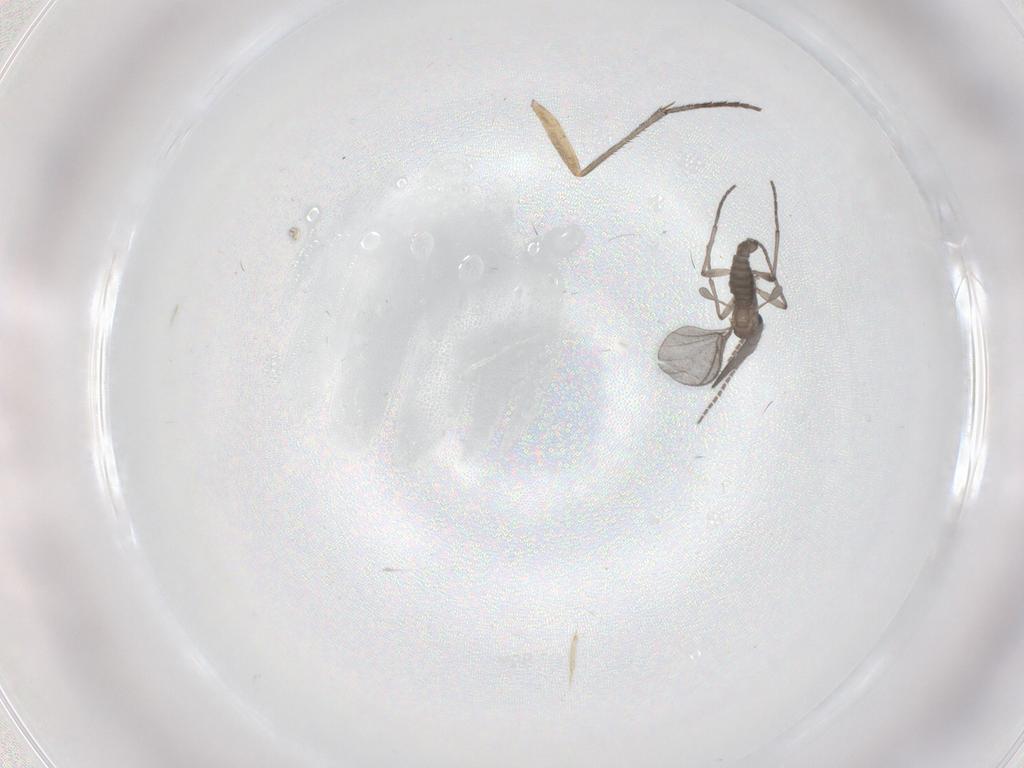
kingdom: Animalia
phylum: Arthropoda
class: Insecta
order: Diptera
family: Sciaridae
